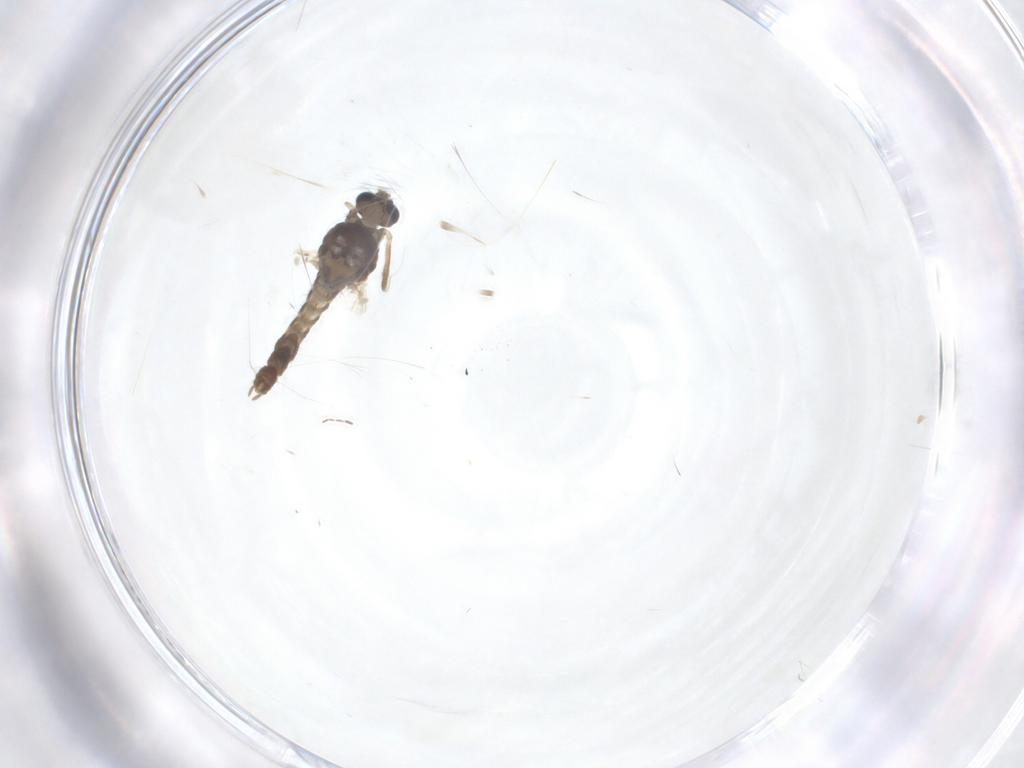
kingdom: Animalia
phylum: Arthropoda
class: Insecta
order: Diptera
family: Chironomidae
